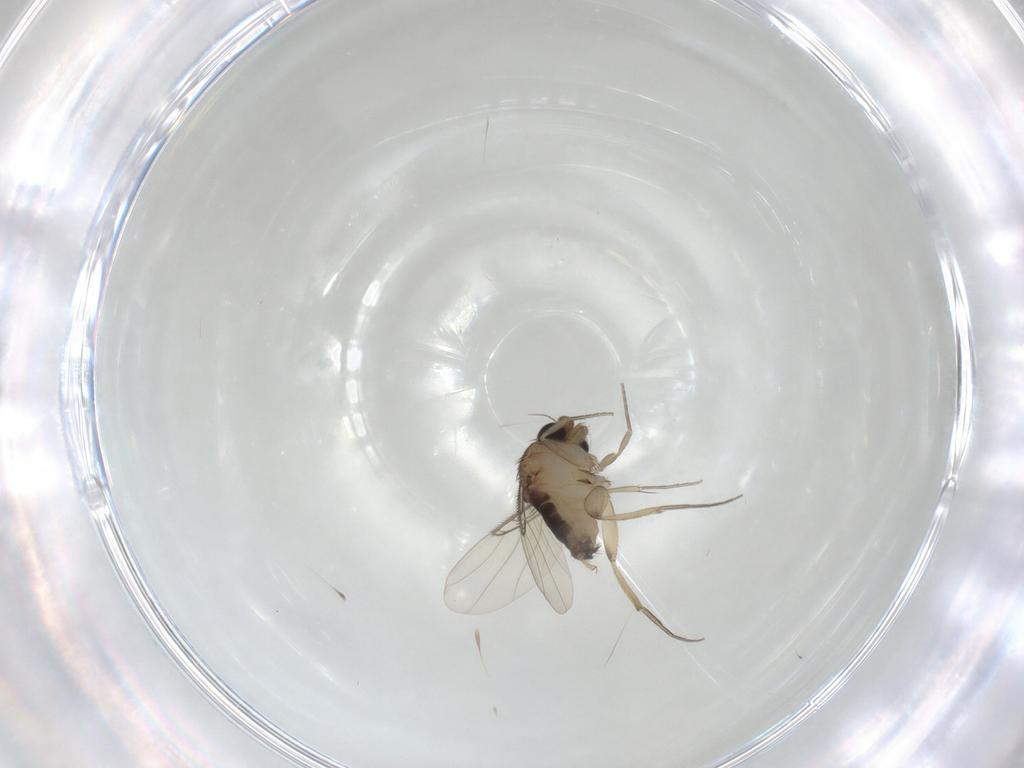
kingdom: Animalia
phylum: Arthropoda
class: Insecta
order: Diptera
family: Phoridae
